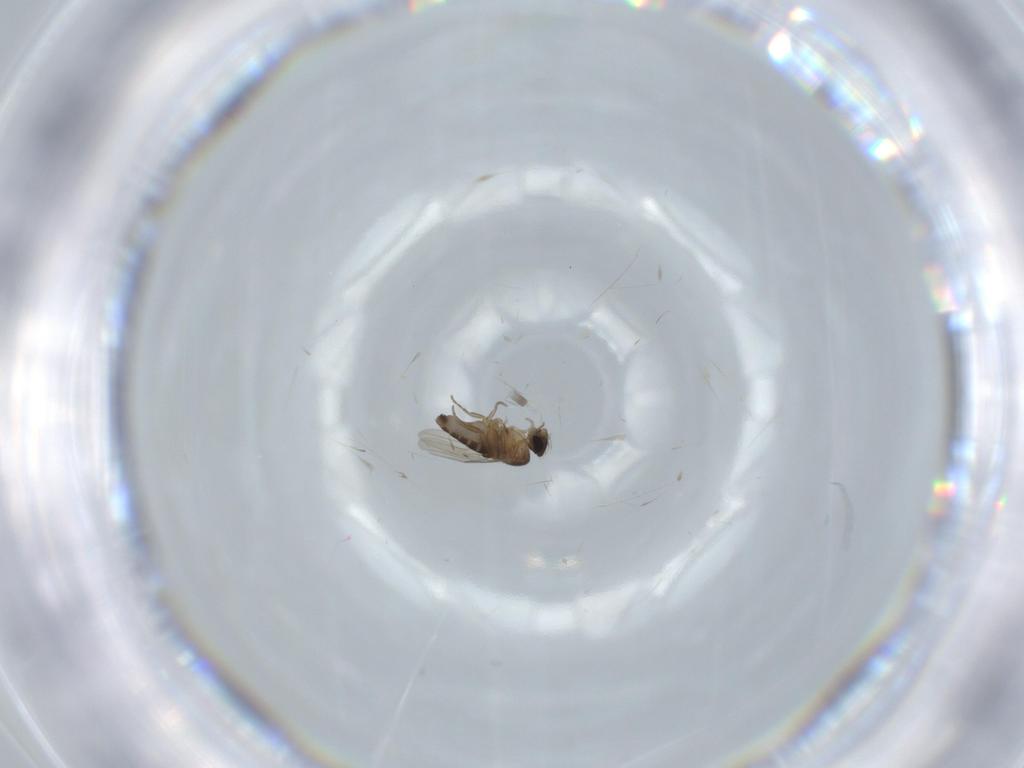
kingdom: Animalia
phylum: Arthropoda
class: Insecta
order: Diptera
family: Phoridae
